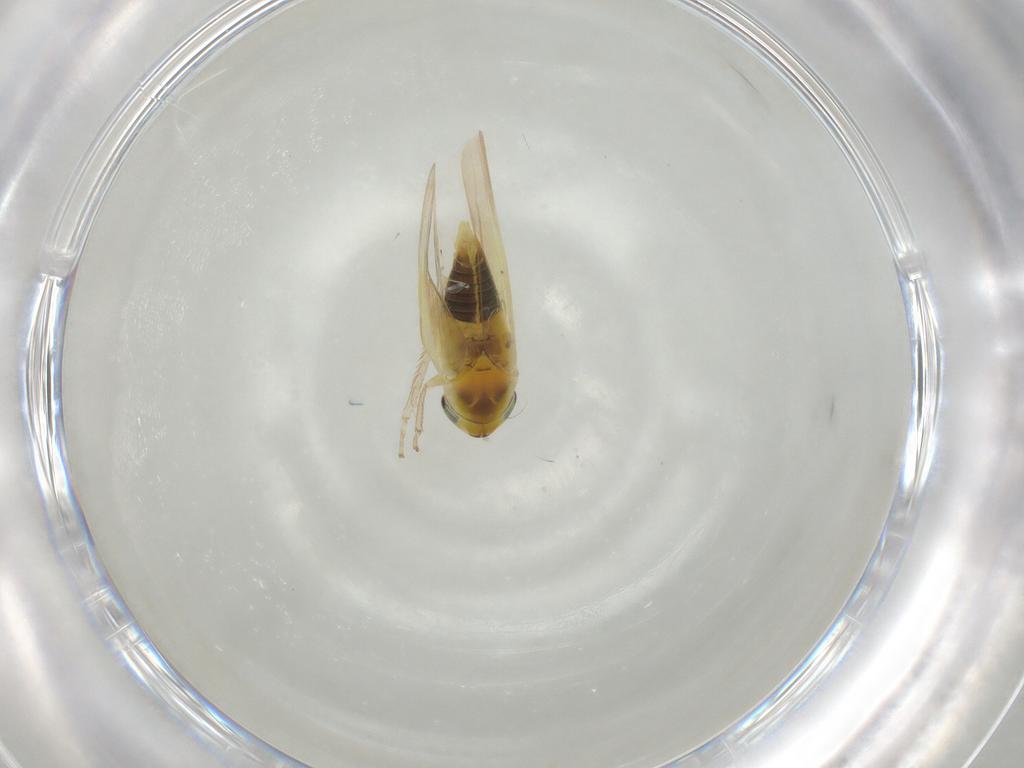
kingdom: Animalia
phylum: Arthropoda
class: Insecta
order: Hemiptera
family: Cicadellidae
